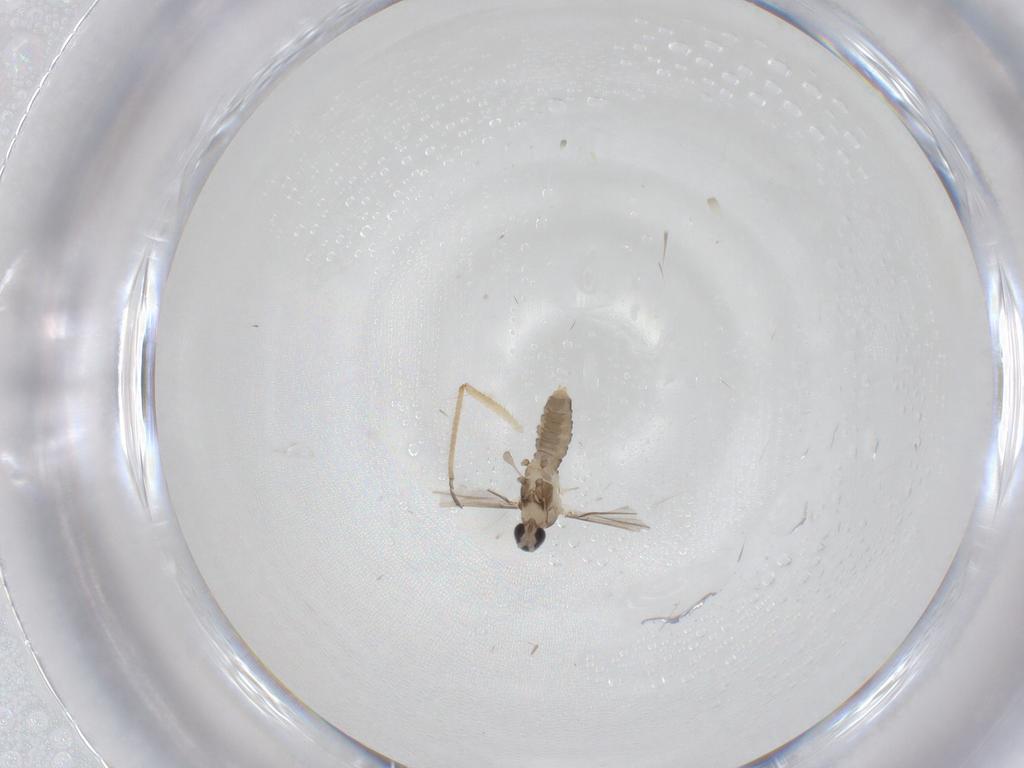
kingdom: Animalia
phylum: Arthropoda
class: Insecta
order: Diptera
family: Cecidomyiidae
